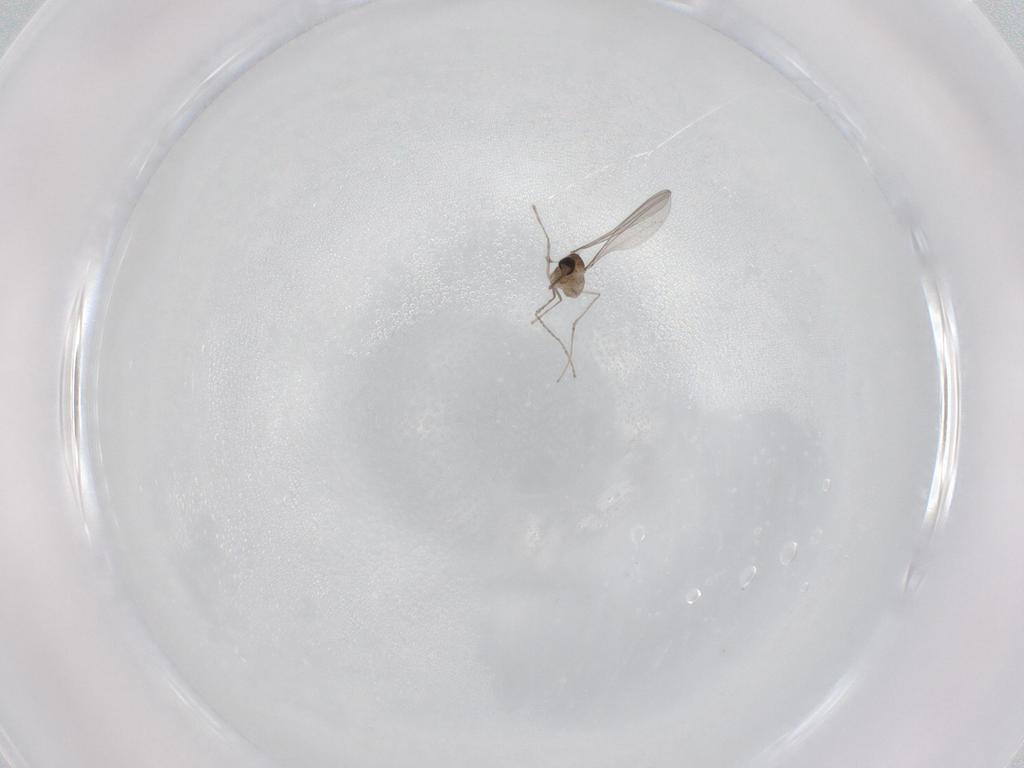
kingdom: Animalia
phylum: Arthropoda
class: Insecta
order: Diptera
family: Cecidomyiidae
